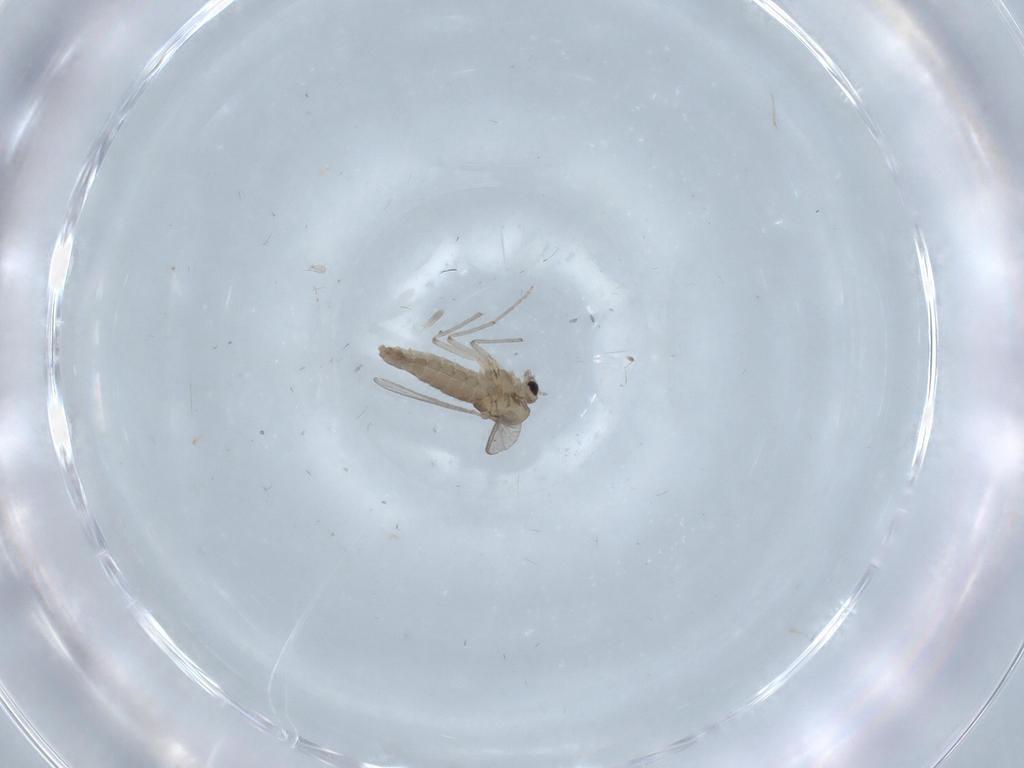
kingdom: Animalia
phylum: Arthropoda
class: Insecta
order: Diptera
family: Chironomidae
